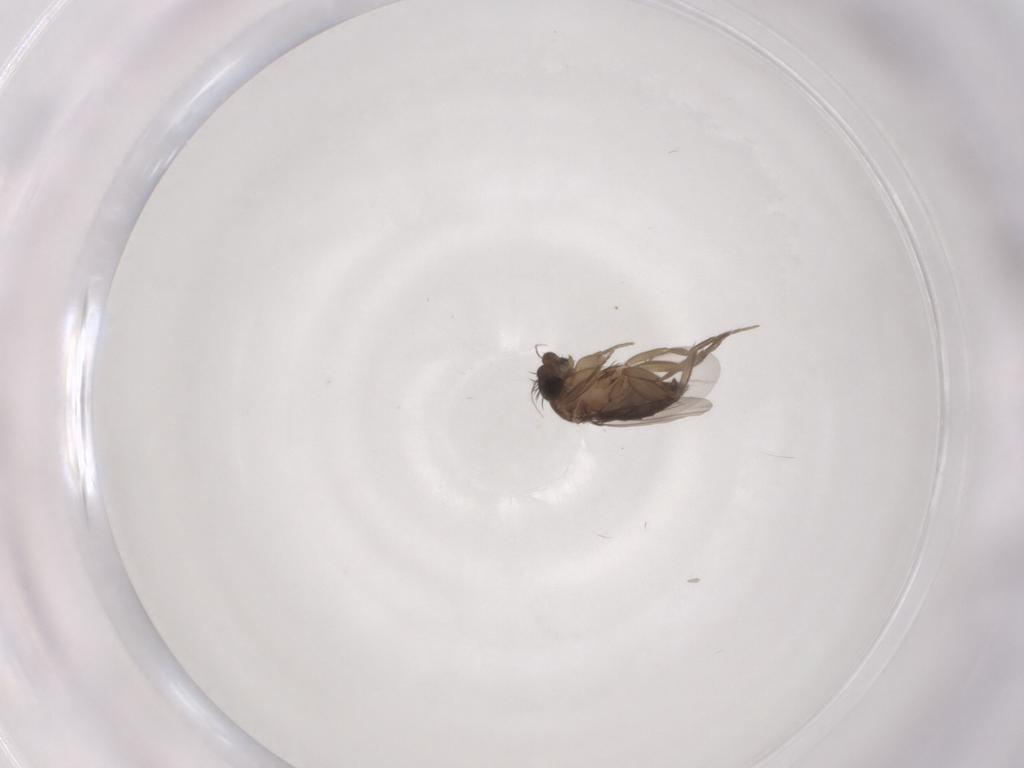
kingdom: Animalia
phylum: Arthropoda
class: Insecta
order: Diptera
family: Phoridae
